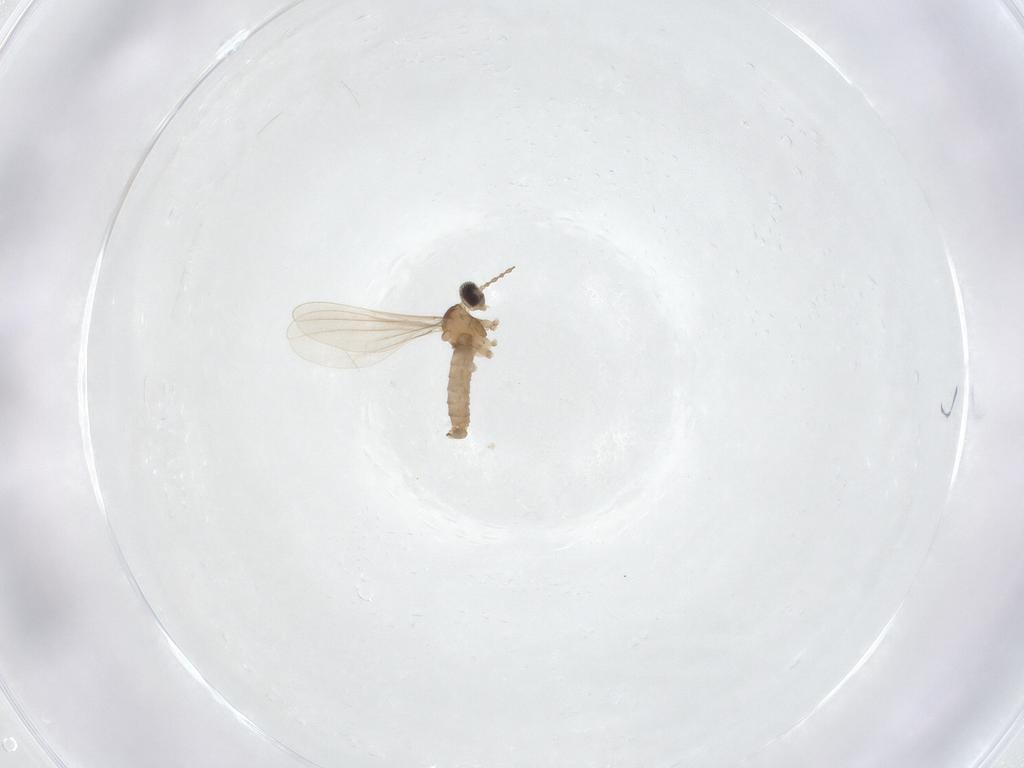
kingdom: Animalia
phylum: Arthropoda
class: Insecta
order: Diptera
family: Cecidomyiidae
